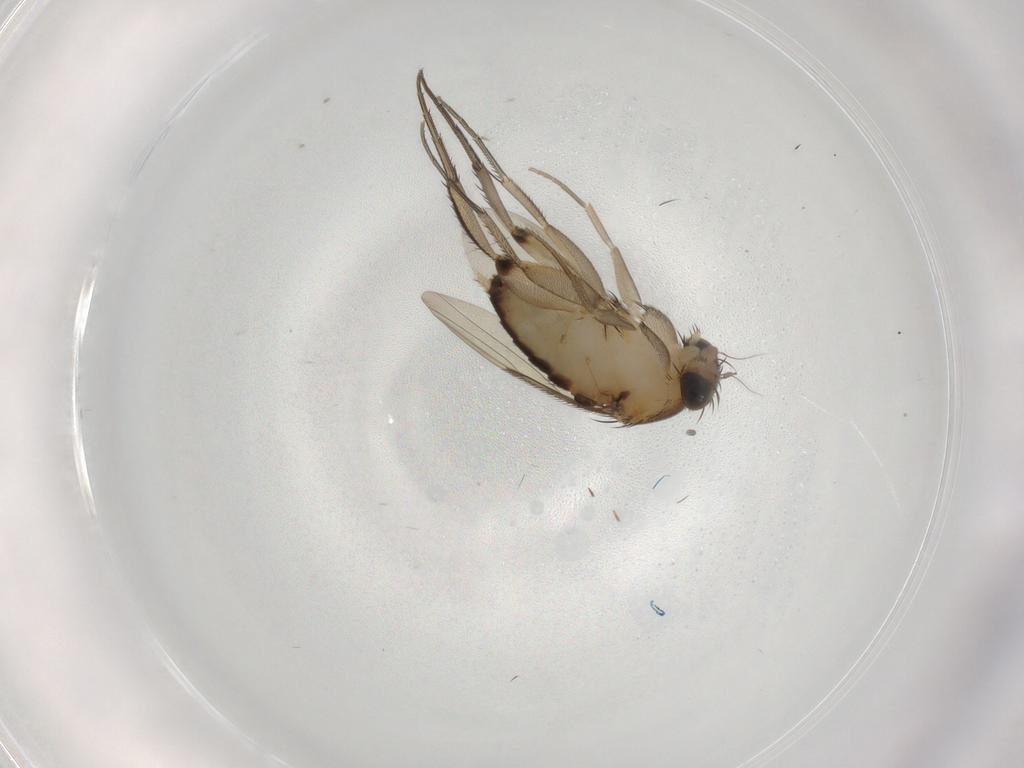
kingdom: Animalia
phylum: Arthropoda
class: Insecta
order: Diptera
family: Phoridae
